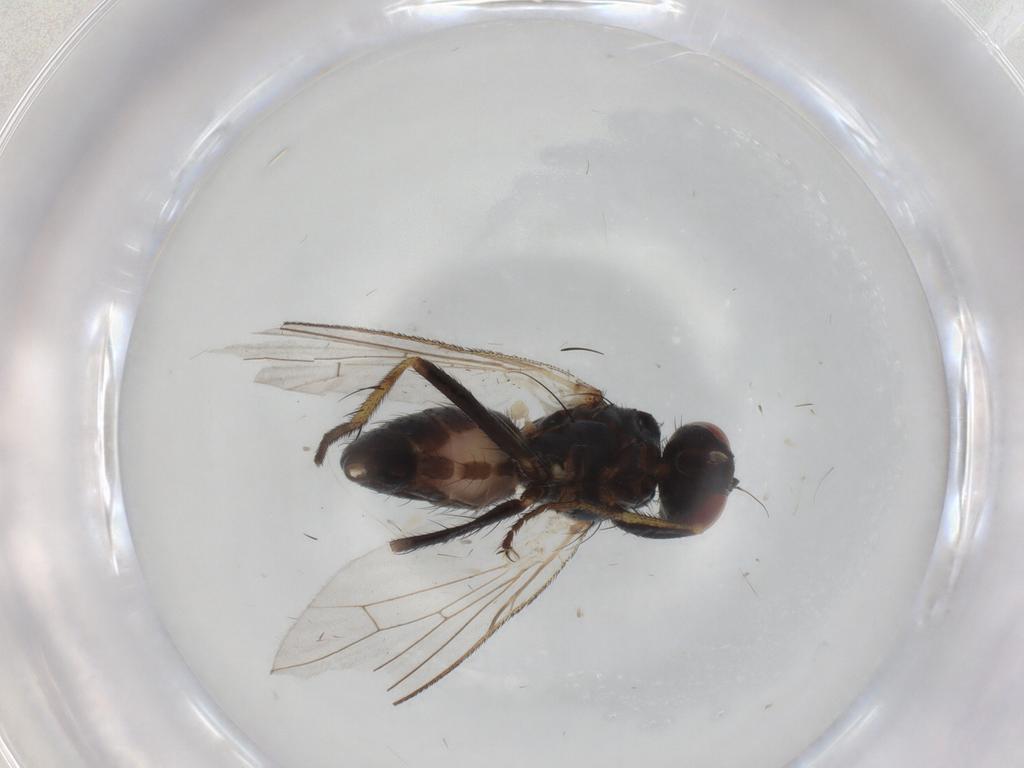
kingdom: Animalia
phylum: Arthropoda
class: Insecta
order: Diptera
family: Muscidae
